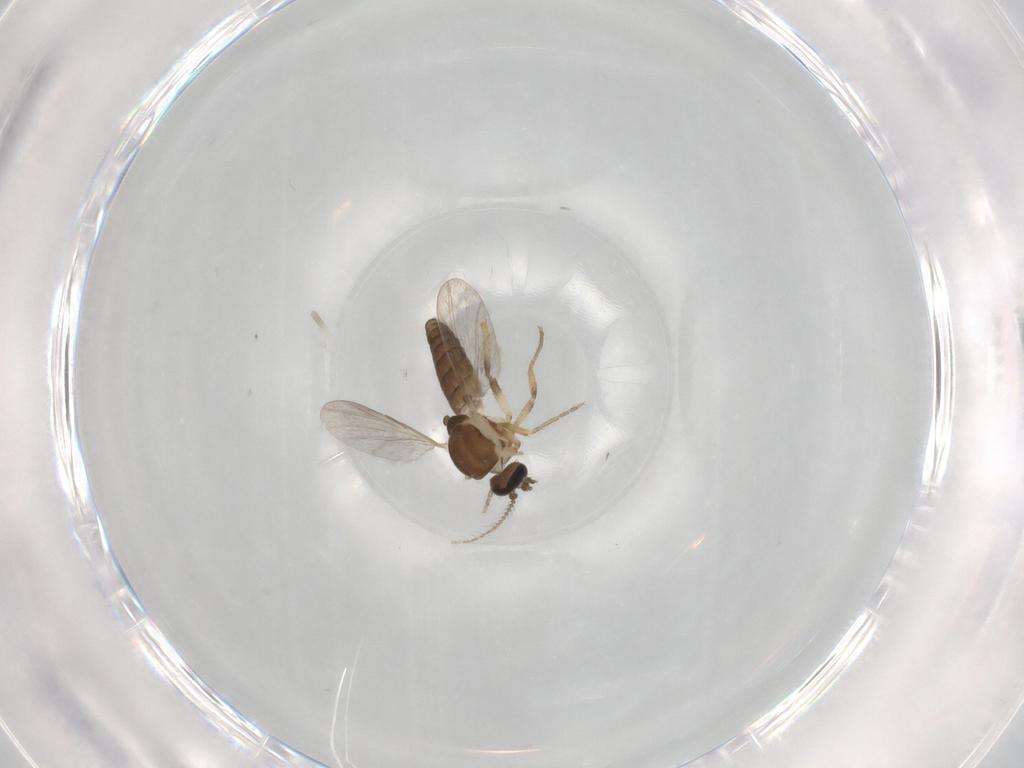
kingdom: Animalia
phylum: Arthropoda
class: Insecta
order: Diptera
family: Ceratopogonidae
